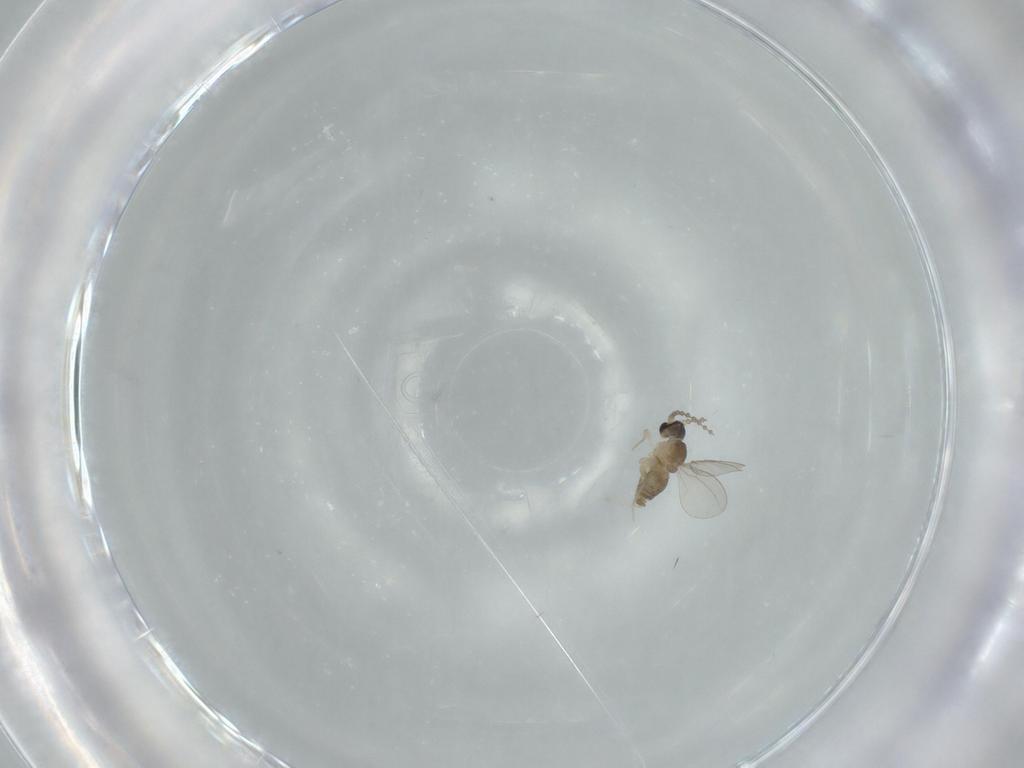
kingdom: Animalia
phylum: Arthropoda
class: Insecta
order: Diptera
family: Cecidomyiidae
